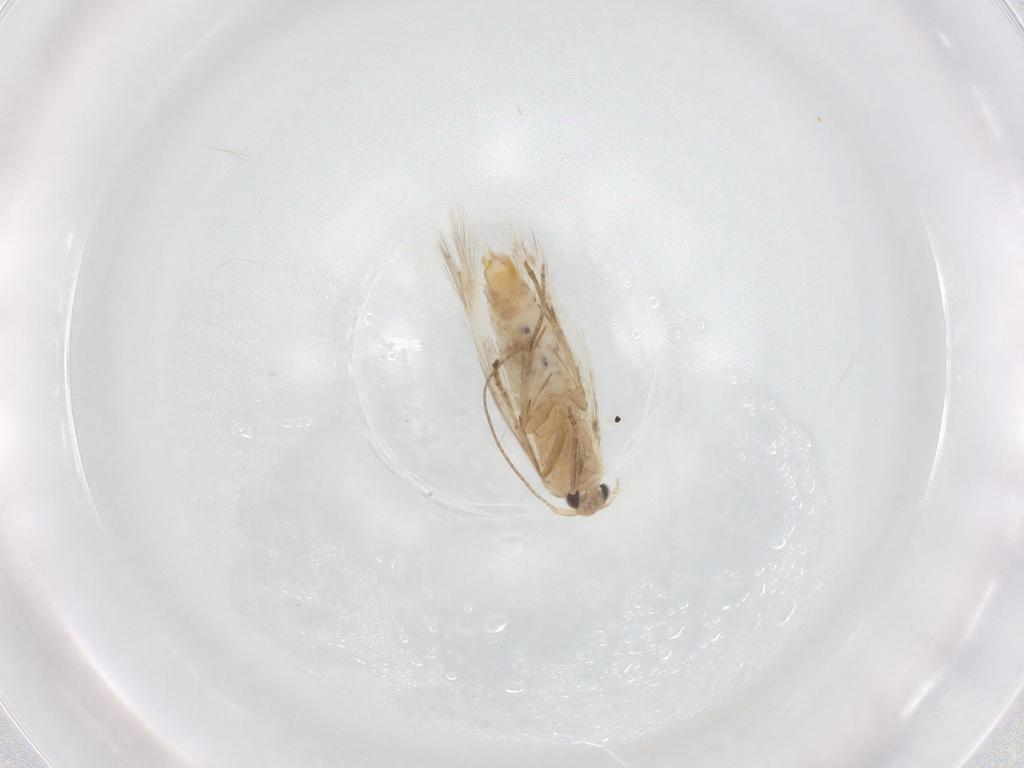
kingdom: Animalia
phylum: Arthropoda
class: Insecta
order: Lepidoptera
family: Bucculatricidae
